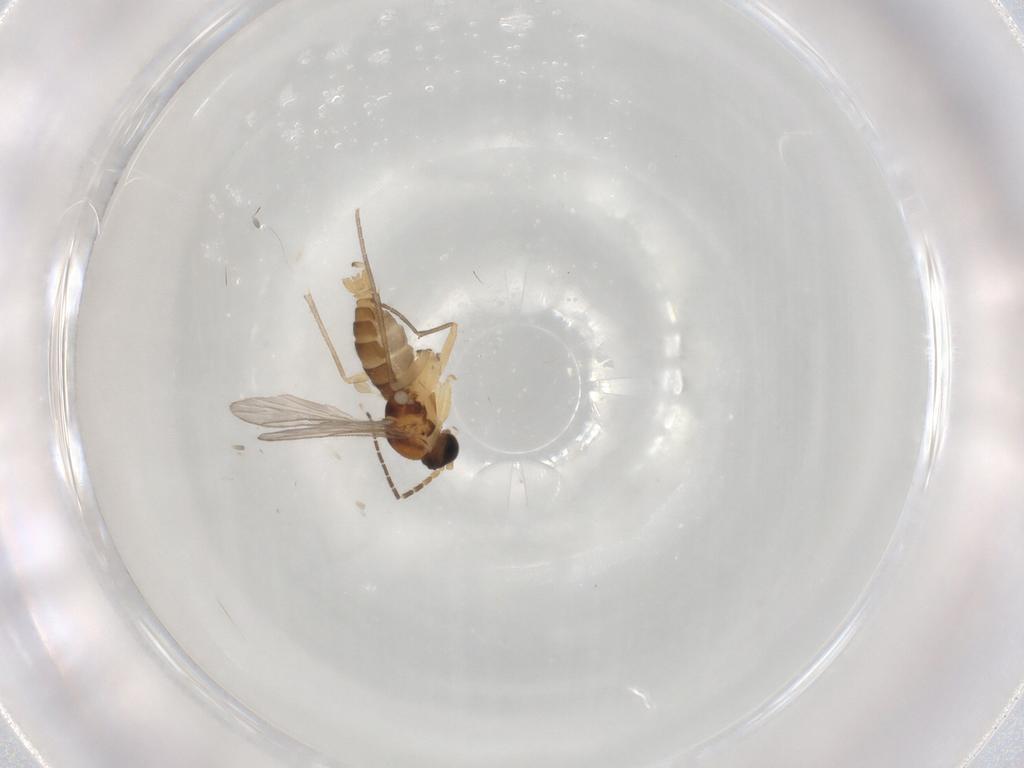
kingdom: Animalia
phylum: Arthropoda
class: Insecta
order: Diptera
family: Sciaridae
